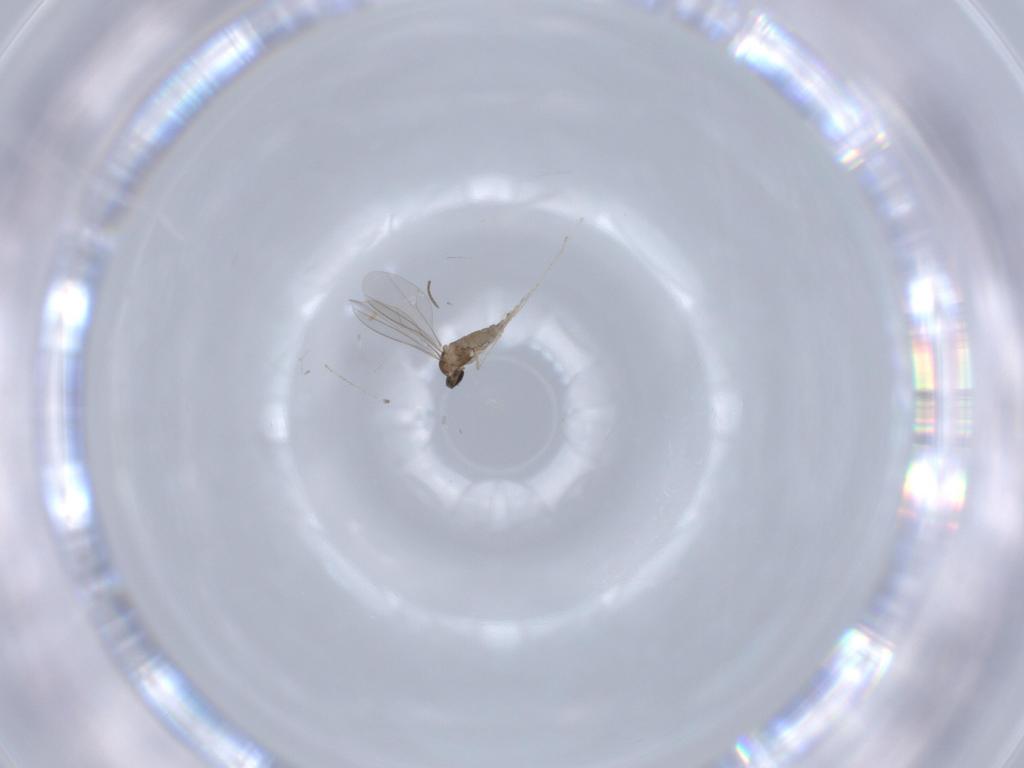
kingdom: Animalia
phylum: Arthropoda
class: Insecta
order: Diptera
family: Cecidomyiidae
